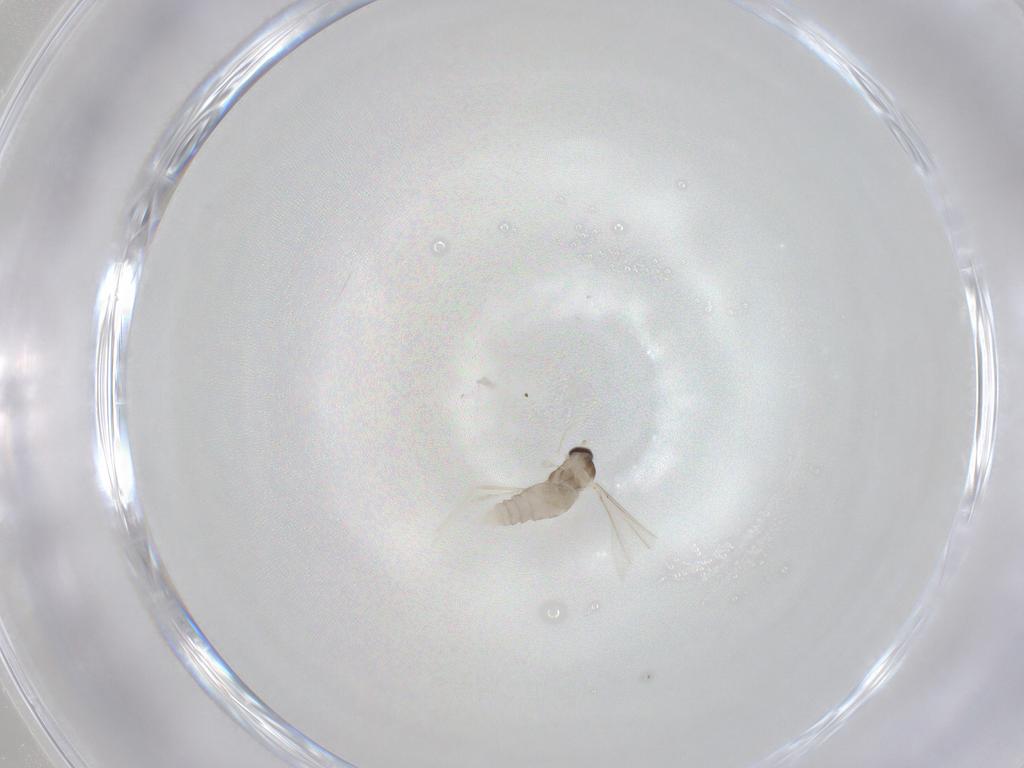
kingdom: Animalia
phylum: Arthropoda
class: Insecta
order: Diptera
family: Cecidomyiidae
